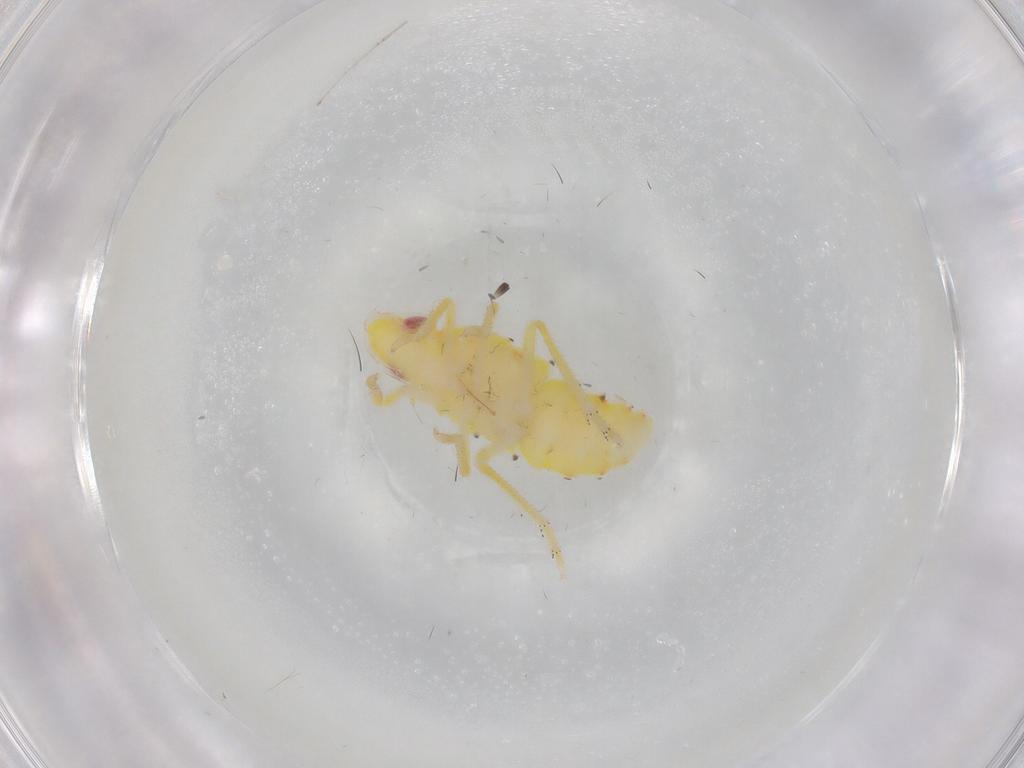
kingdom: Animalia
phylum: Arthropoda
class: Insecta
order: Hemiptera
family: Tropiduchidae
